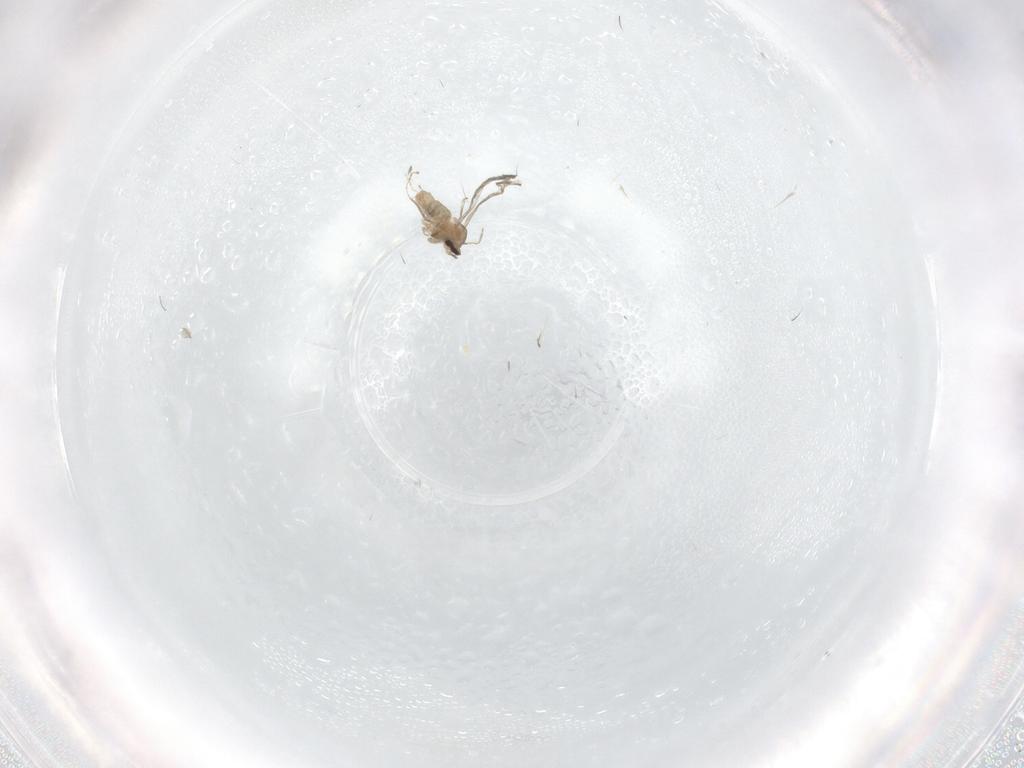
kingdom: Animalia
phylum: Arthropoda
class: Insecta
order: Diptera
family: Cecidomyiidae
